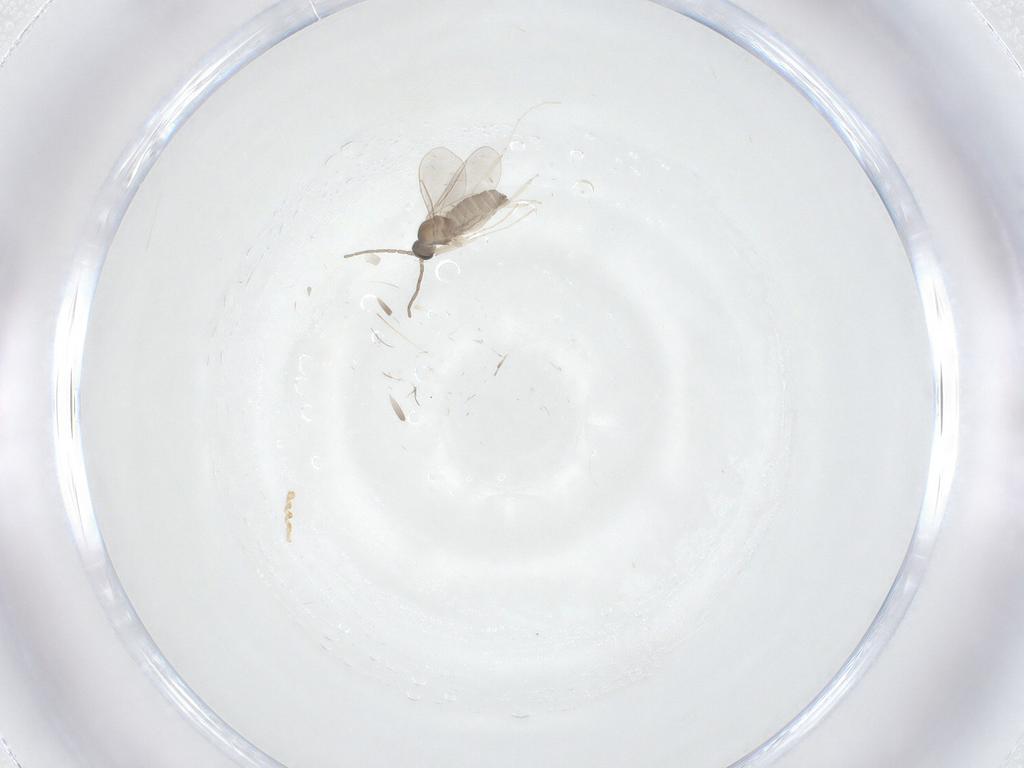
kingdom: Animalia
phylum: Arthropoda
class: Insecta
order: Diptera
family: Cecidomyiidae
